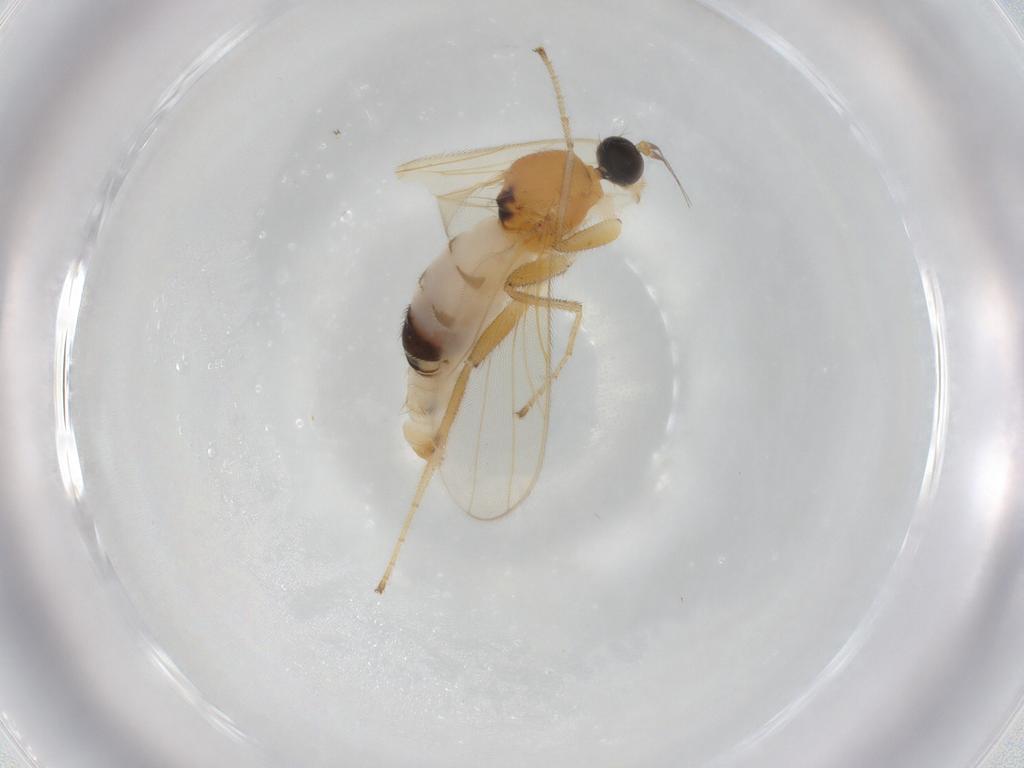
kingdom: Animalia
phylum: Arthropoda
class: Insecta
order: Diptera
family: Hybotidae
